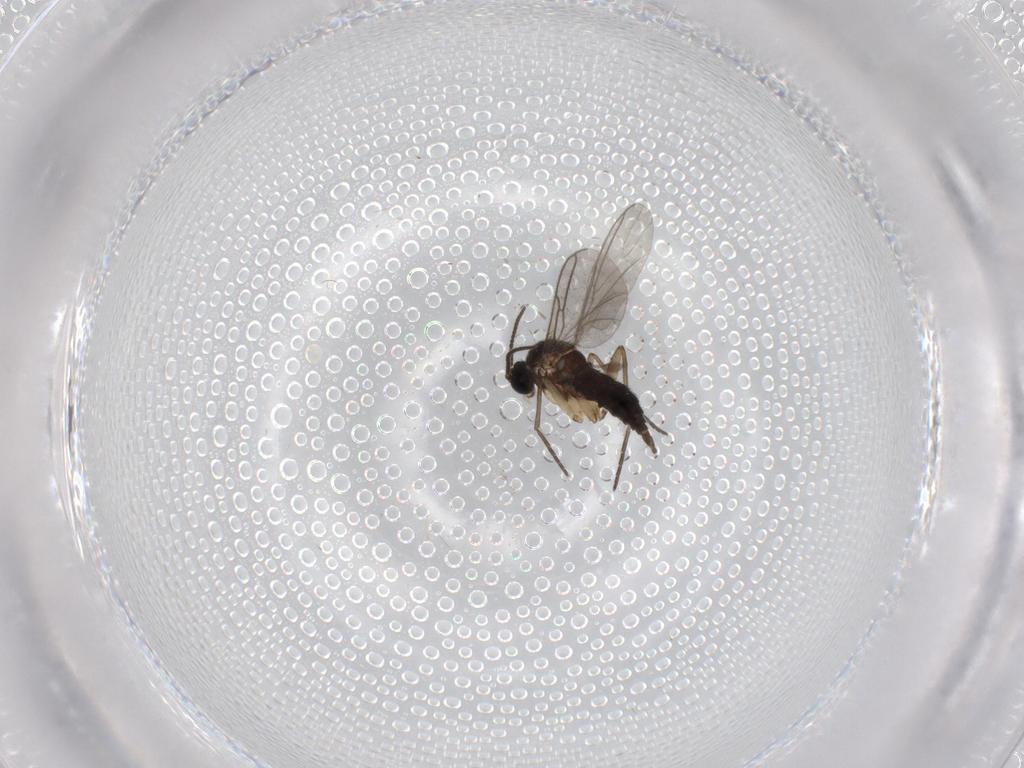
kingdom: Animalia
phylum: Arthropoda
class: Insecta
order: Diptera
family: Sciaridae
